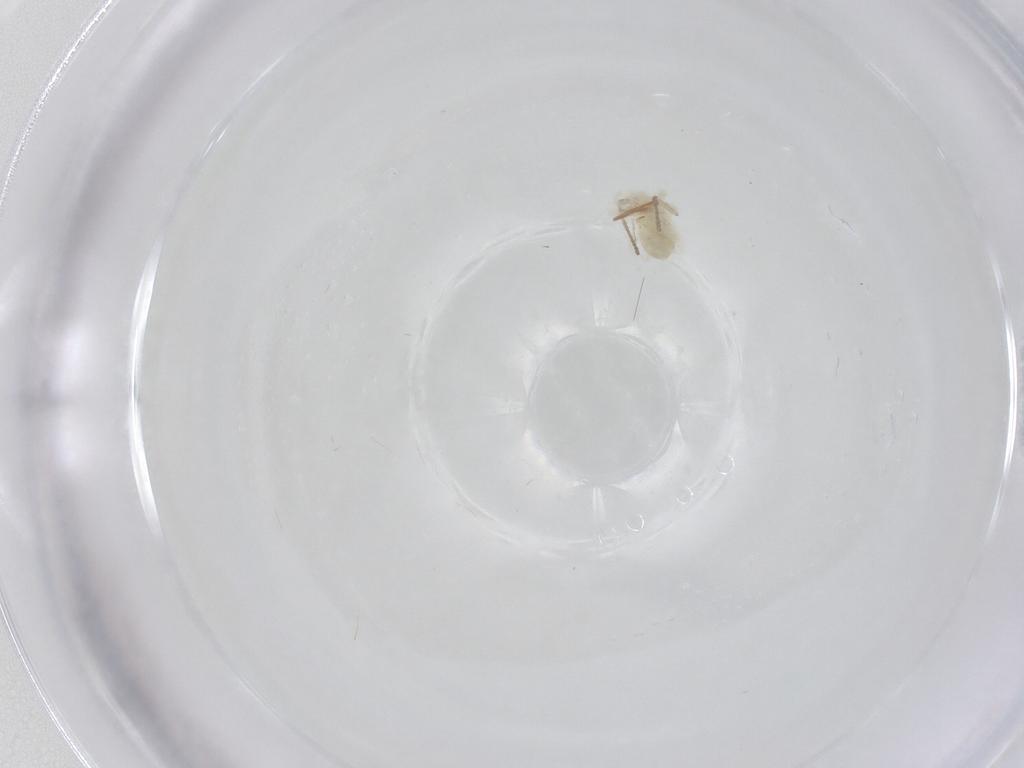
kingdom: Animalia
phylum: Arthropoda
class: Arachnida
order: Trombidiformes
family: Anystidae
